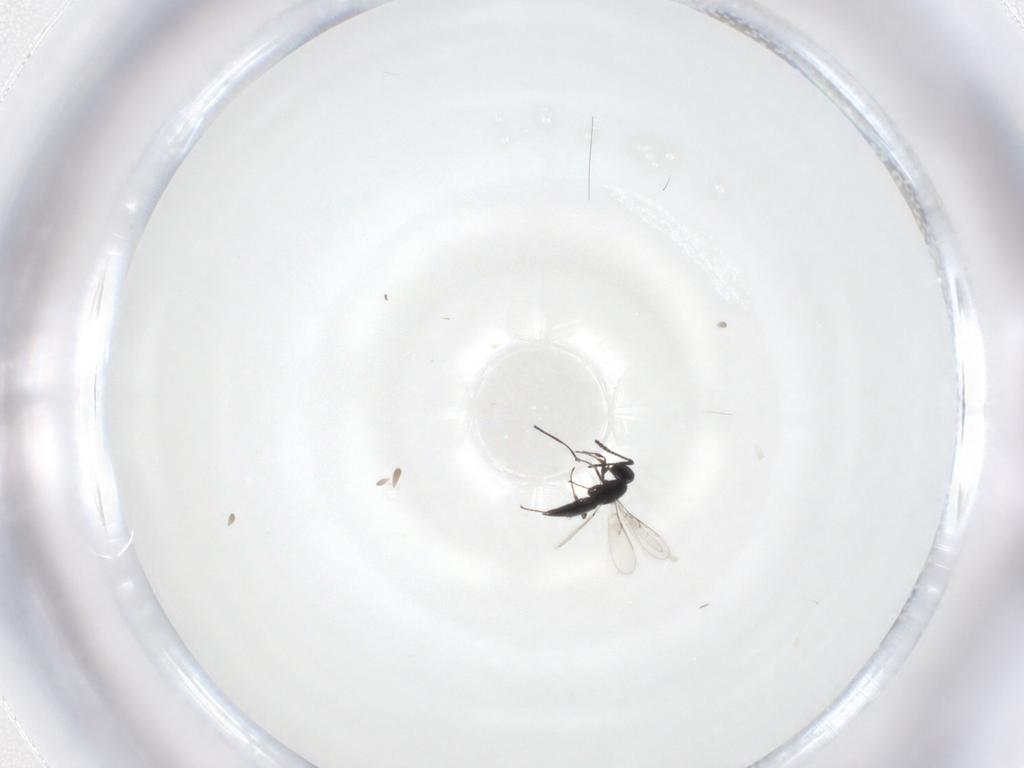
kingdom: Animalia
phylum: Arthropoda
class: Insecta
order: Hymenoptera
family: Scelionidae
